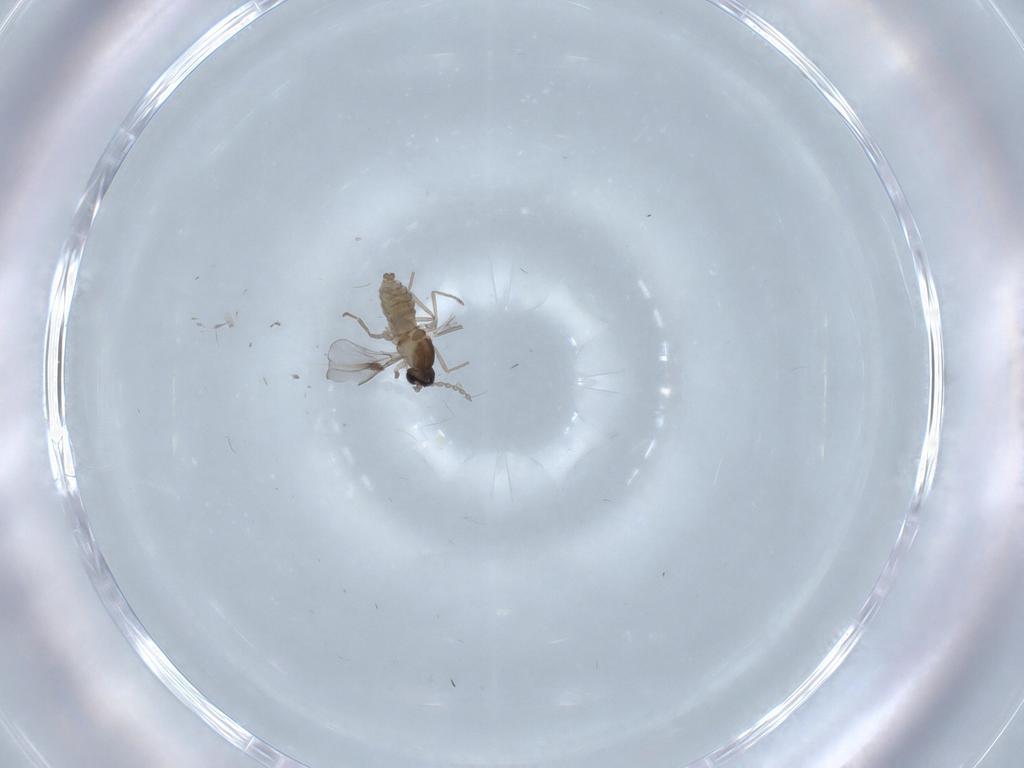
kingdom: Animalia
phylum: Arthropoda
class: Insecta
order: Diptera
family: Cecidomyiidae
